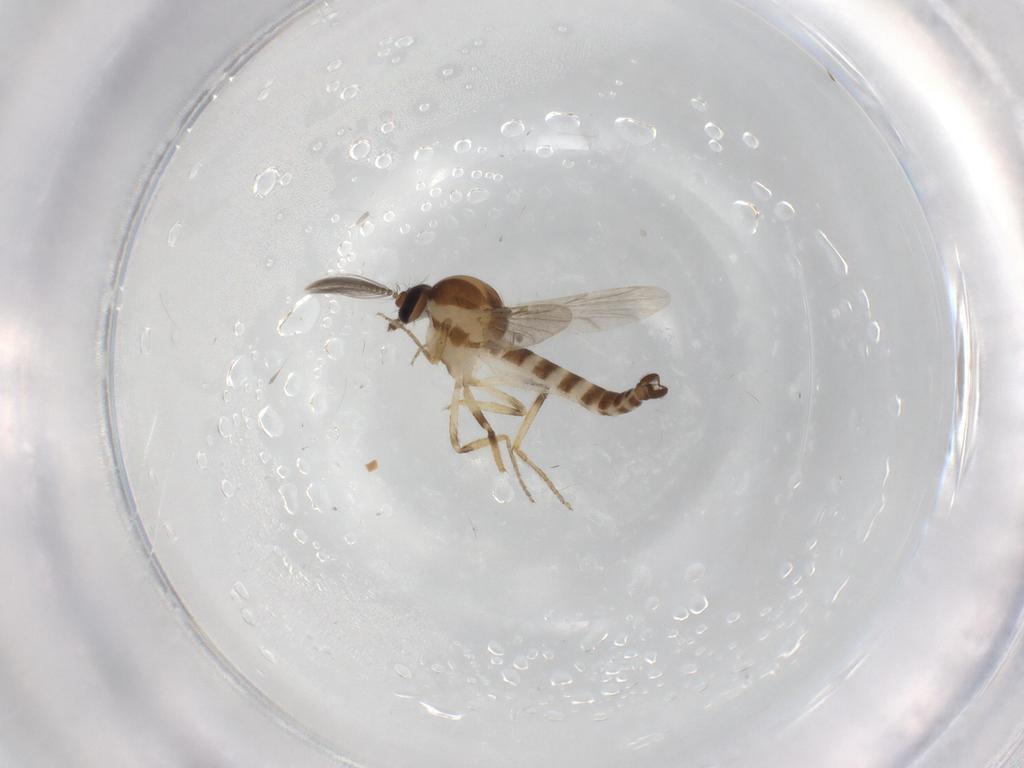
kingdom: Animalia
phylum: Arthropoda
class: Insecta
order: Diptera
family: Ceratopogonidae
